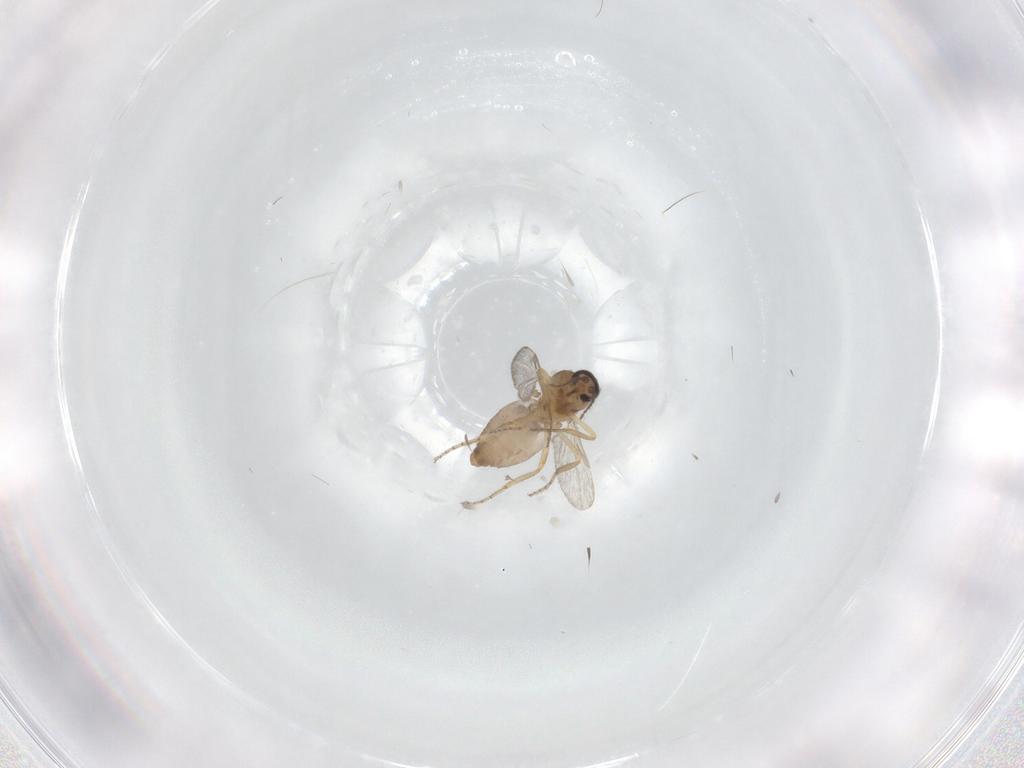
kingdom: Animalia
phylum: Arthropoda
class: Insecta
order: Diptera
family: Ceratopogonidae
